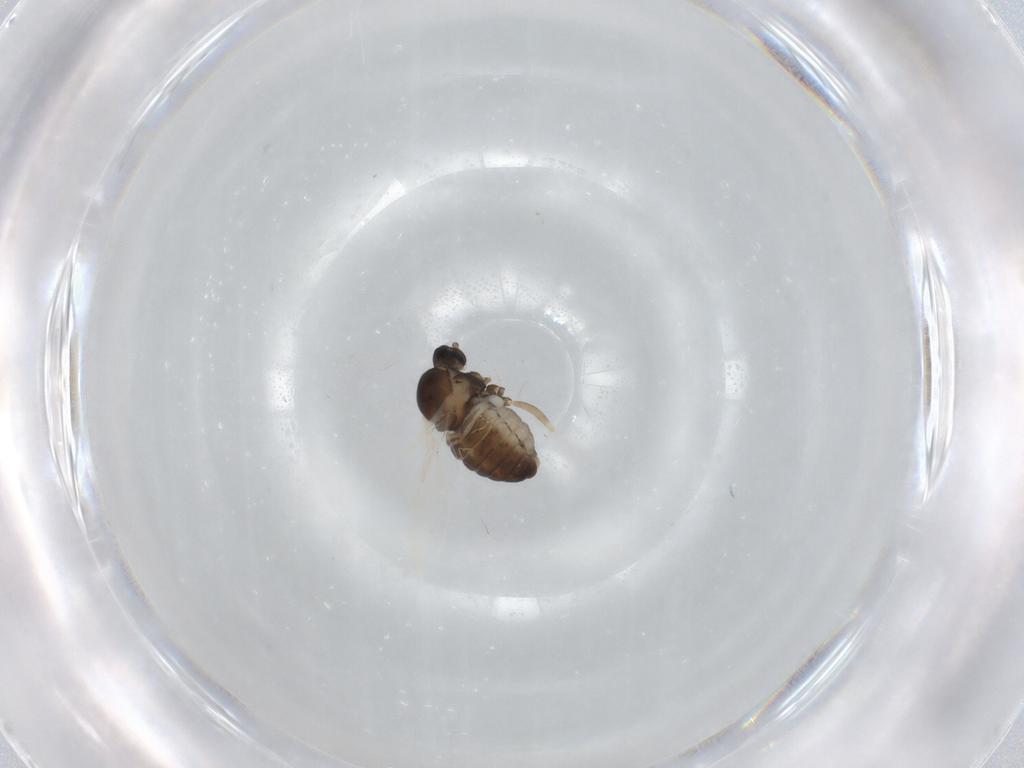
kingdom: Animalia
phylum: Arthropoda
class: Insecta
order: Diptera
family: Cecidomyiidae
